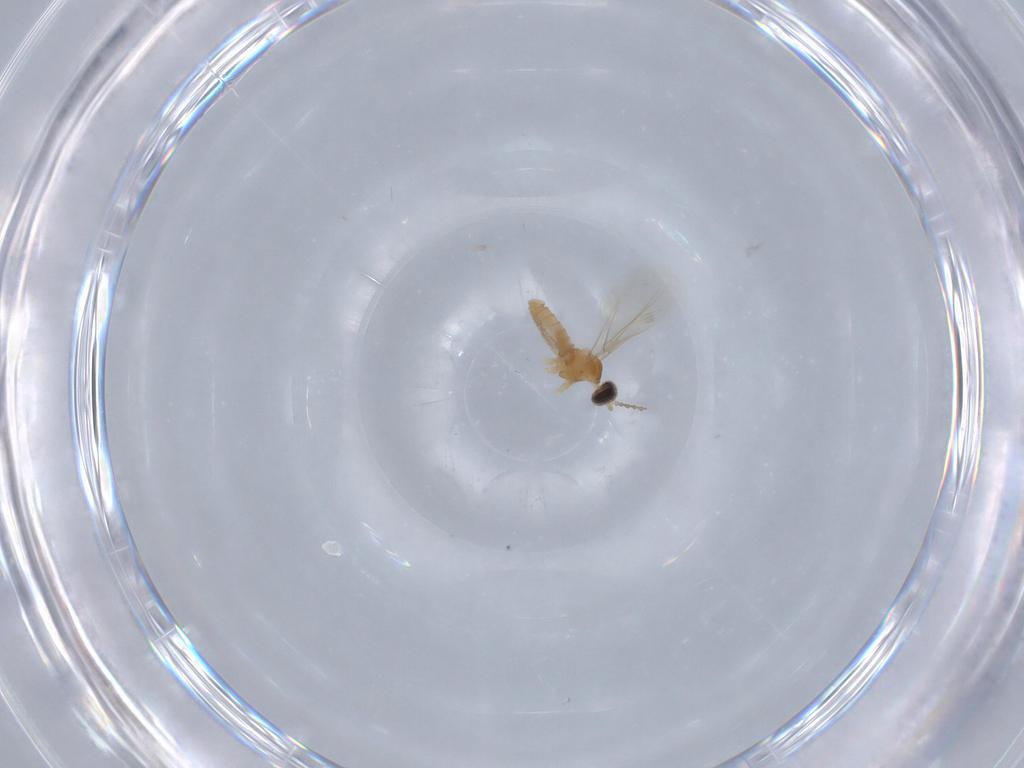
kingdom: Animalia
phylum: Arthropoda
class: Insecta
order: Diptera
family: Cecidomyiidae
